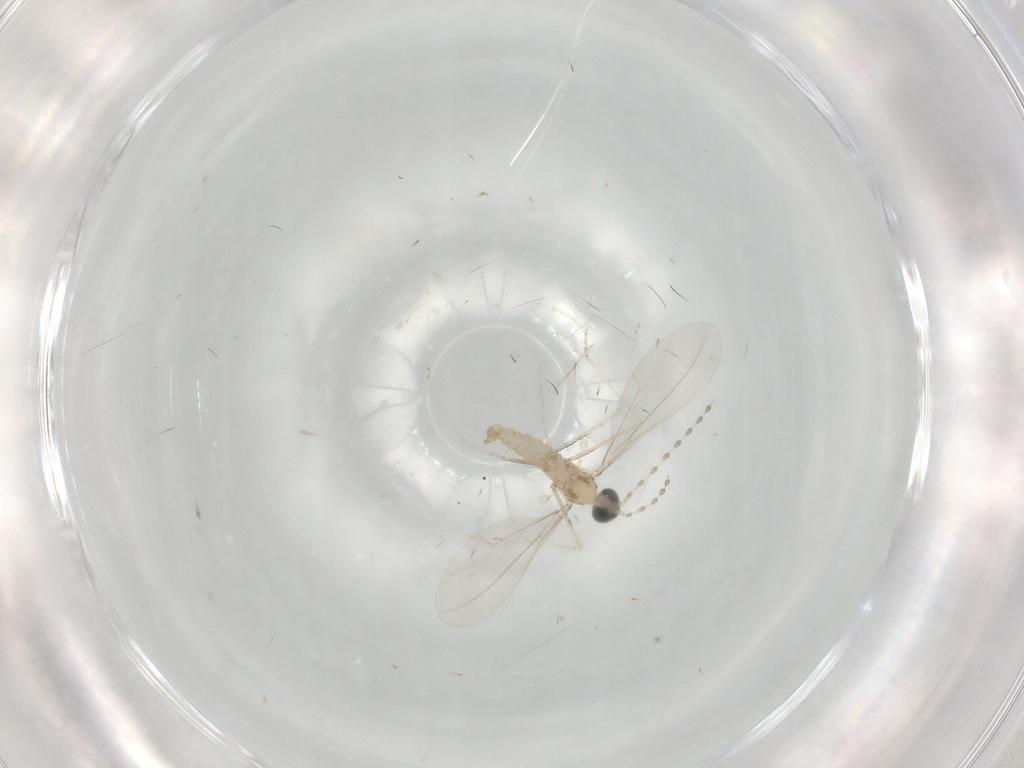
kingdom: Animalia
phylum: Arthropoda
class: Insecta
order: Diptera
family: Cecidomyiidae
